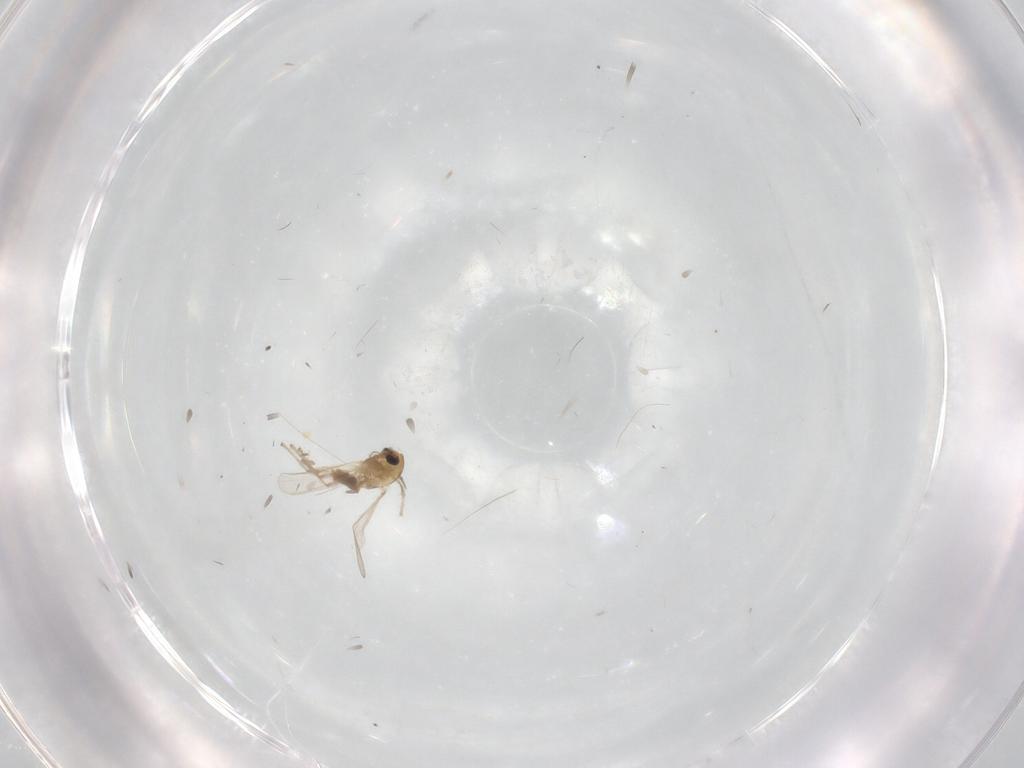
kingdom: Animalia
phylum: Arthropoda
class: Insecta
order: Diptera
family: Chironomidae
